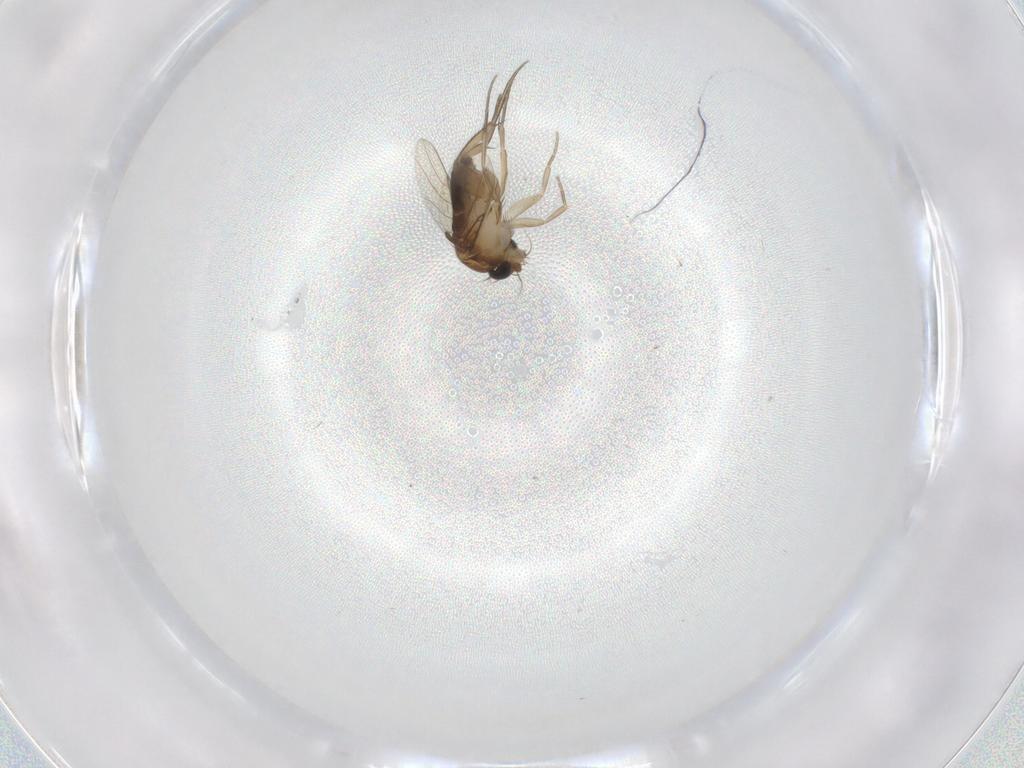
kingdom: Animalia
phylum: Arthropoda
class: Insecta
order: Diptera
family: Phoridae
